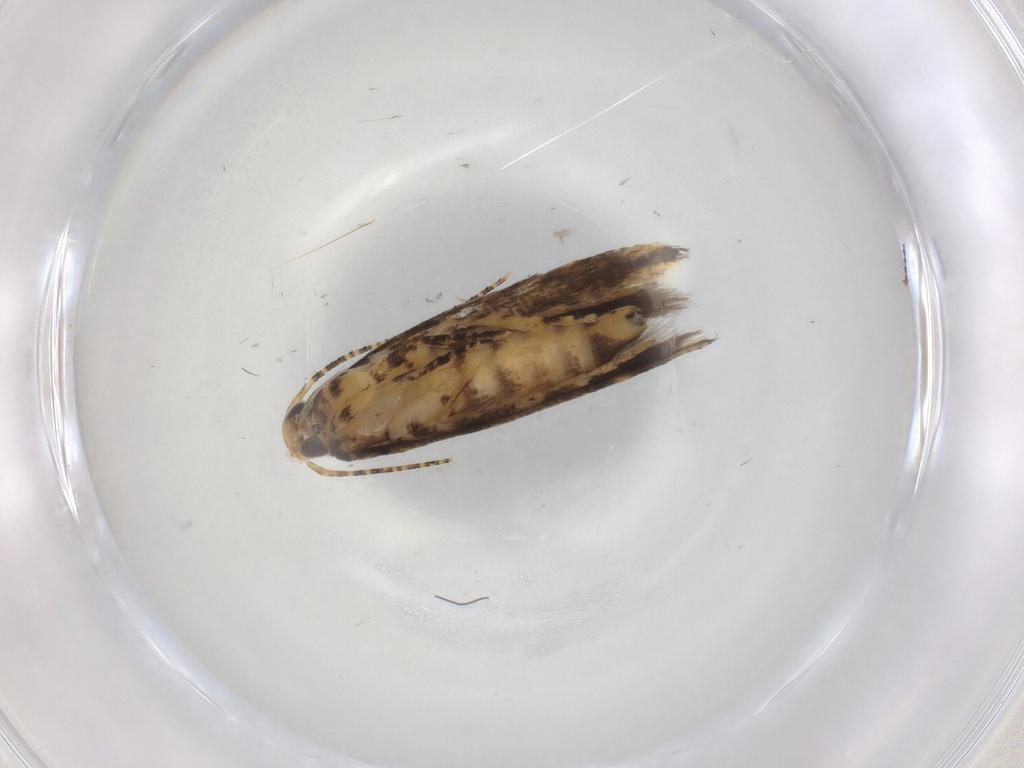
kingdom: Animalia
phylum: Arthropoda
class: Insecta
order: Lepidoptera
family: Gelechiidae
